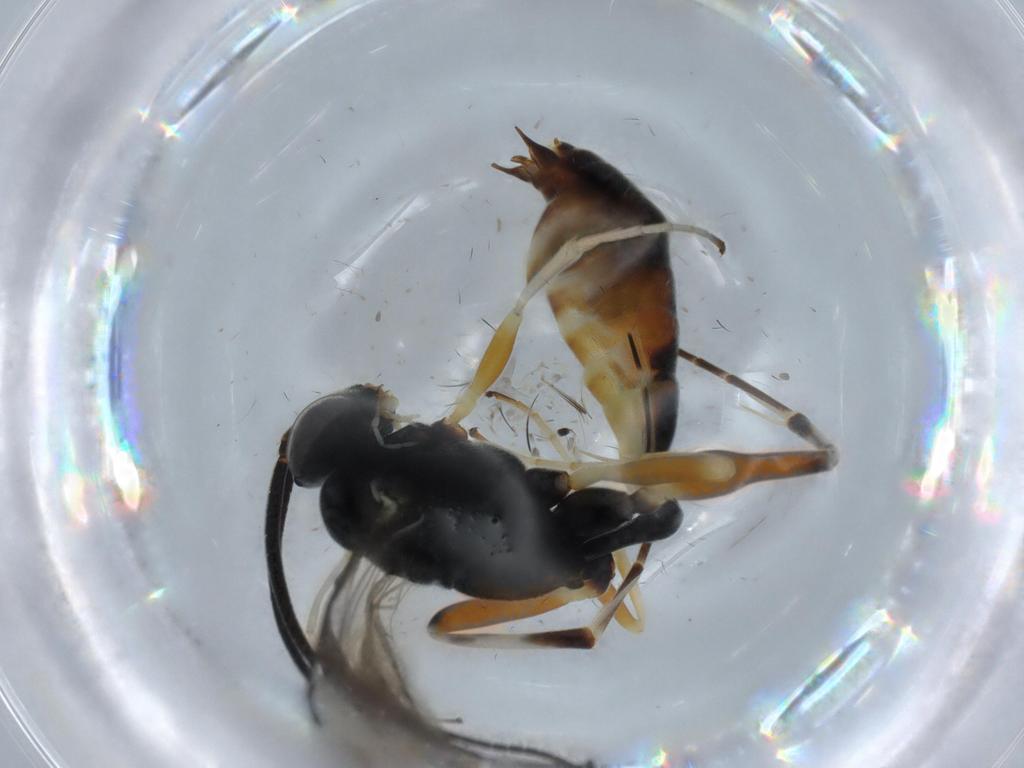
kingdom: Animalia
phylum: Arthropoda
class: Insecta
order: Hymenoptera
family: Ichneumonidae
